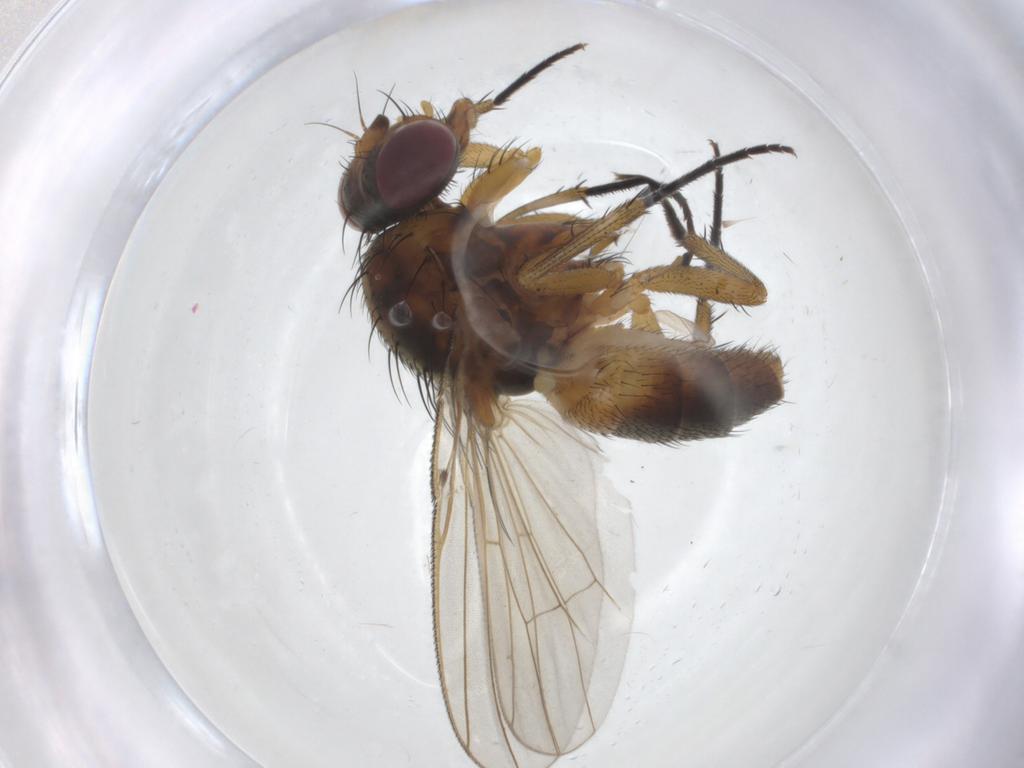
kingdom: Animalia
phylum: Arthropoda
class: Insecta
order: Diptera
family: Fanniidae
